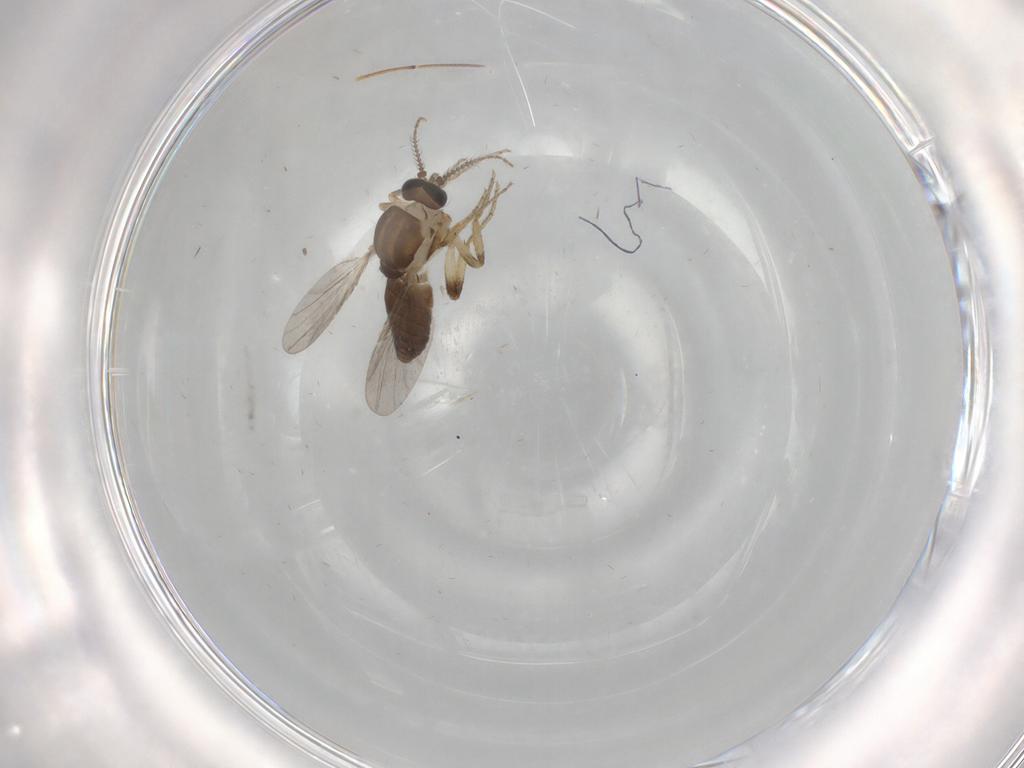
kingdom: Animalia
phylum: Arthropoda
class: Insecta
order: Diptera
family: Ceratopogonidae
